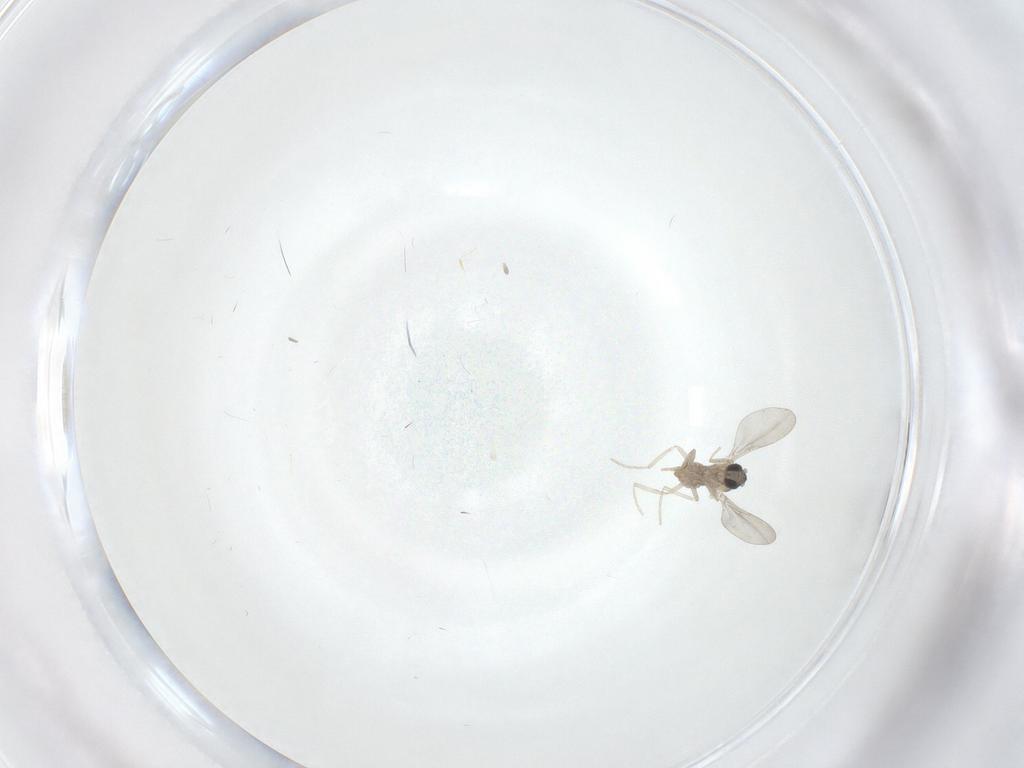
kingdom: Animalia
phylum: Arthropoda
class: Insecta
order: Diptera
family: Cecidomyiidae
